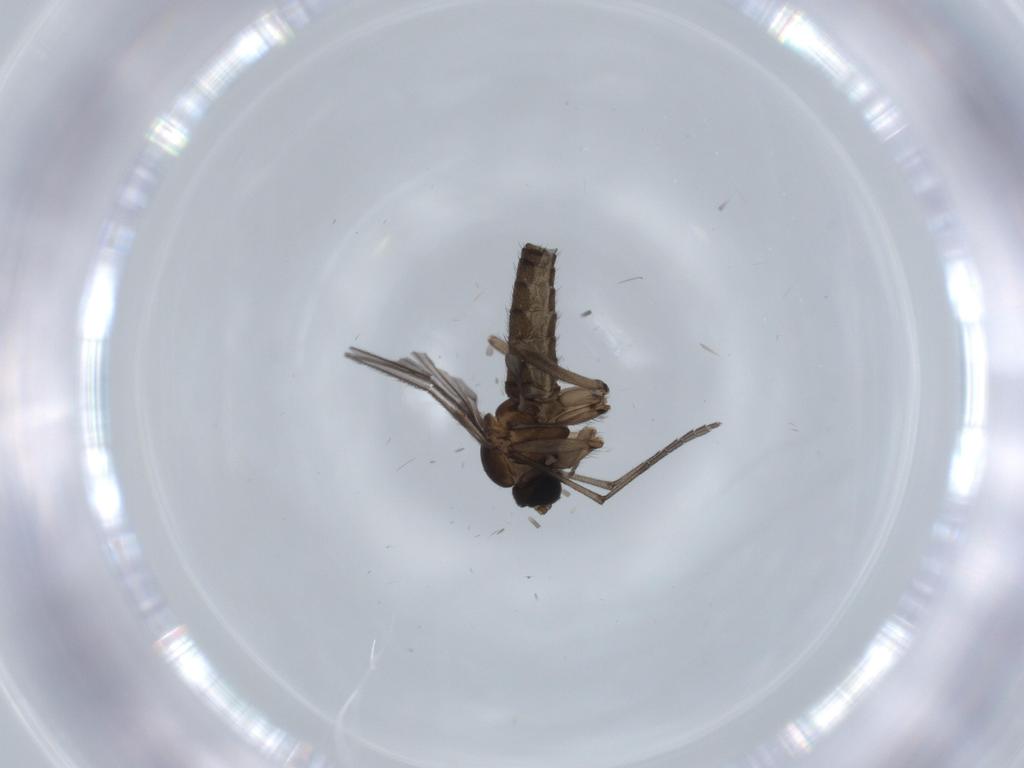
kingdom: Animalia
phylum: Arthropoda
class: Insecta
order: Diptera
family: Sciaridae
